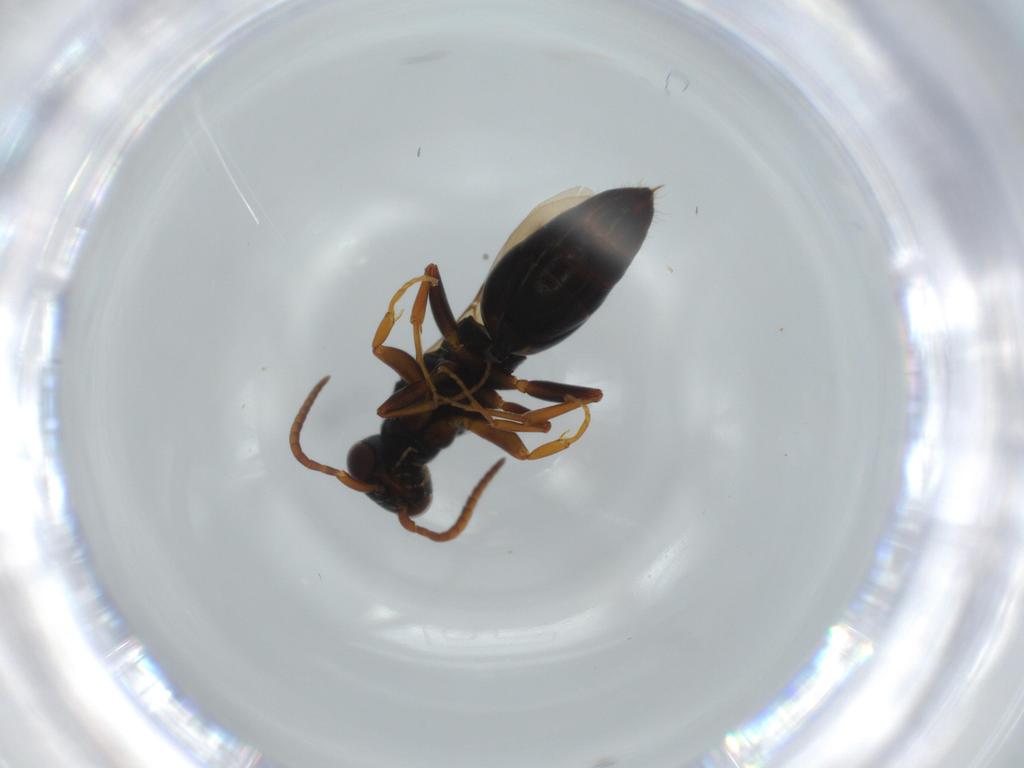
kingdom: Animalia
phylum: Arthropoda
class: Insecta
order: Hymenoptera
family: Bethylidae
